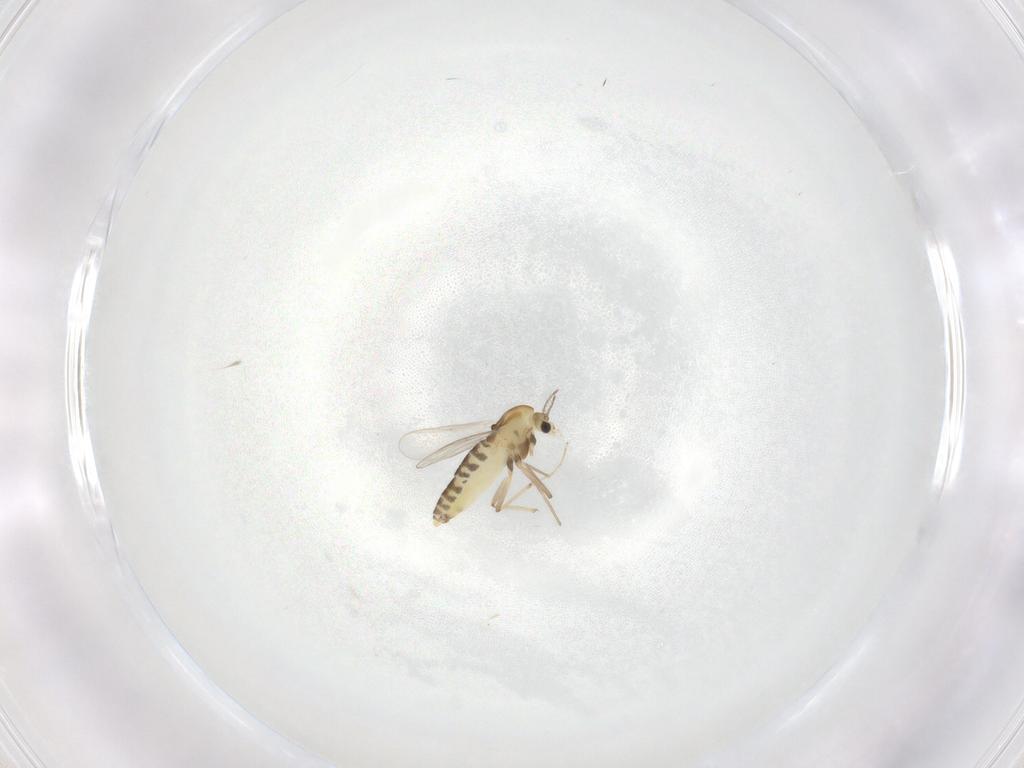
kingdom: Animalia
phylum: Arthropoda
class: Insecta
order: Diptera
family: Chironomidae
